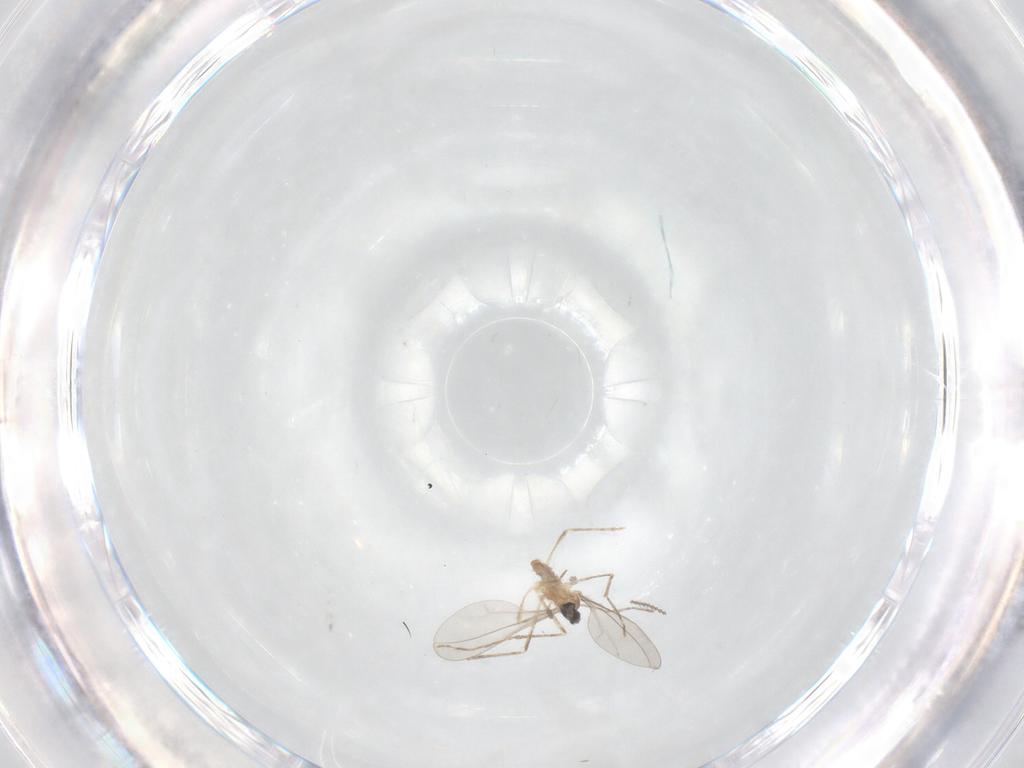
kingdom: Animalia
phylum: Arthropoda
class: Insecta
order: Diptera
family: Cecidomyiidae
